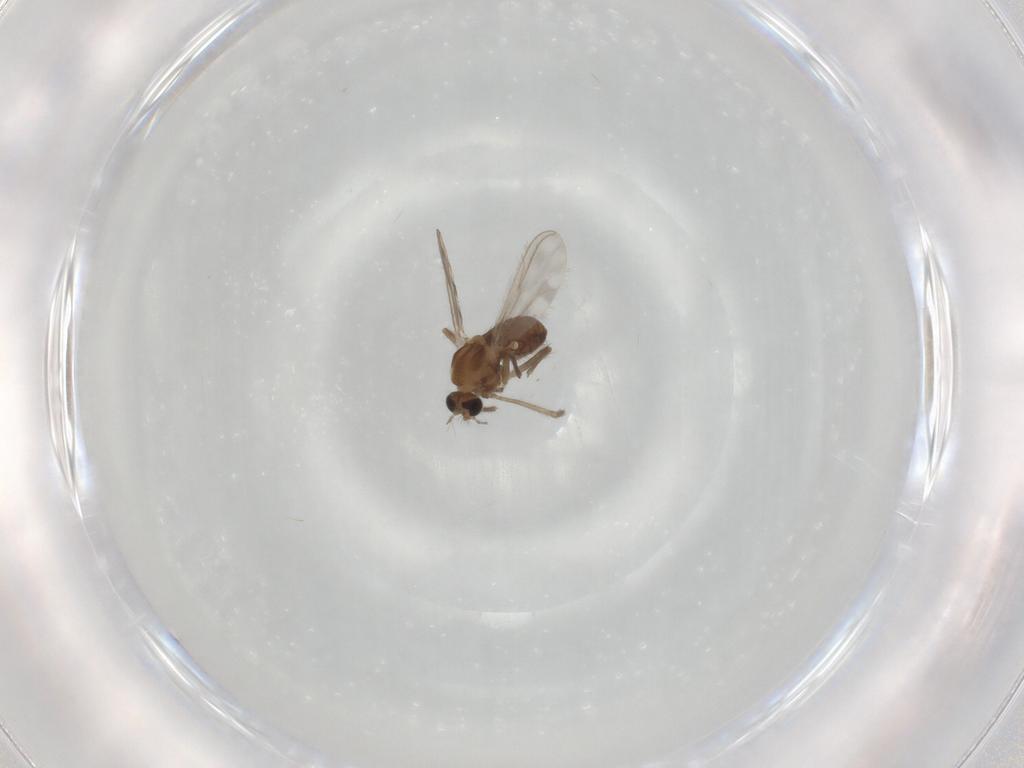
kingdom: Animalia
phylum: Arthropoda
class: Insecta
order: Diptera
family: Chironomidae
